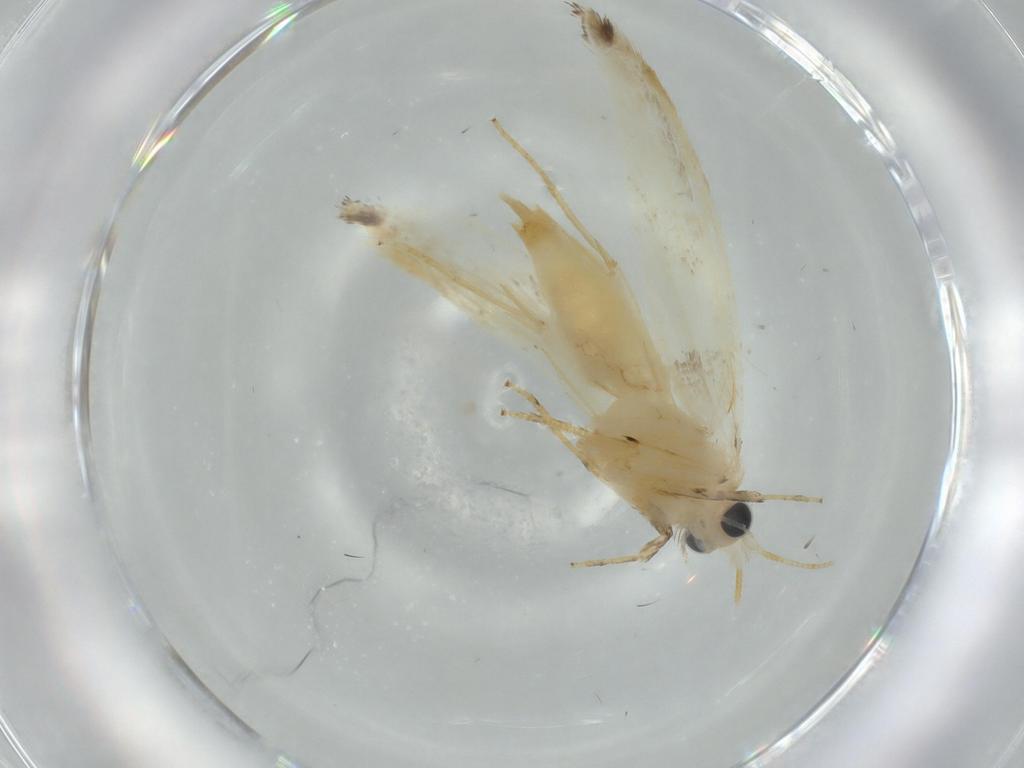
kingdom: Animalia
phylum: Arthropoda
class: Insecta
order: Lepidoptera
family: Tineidae
